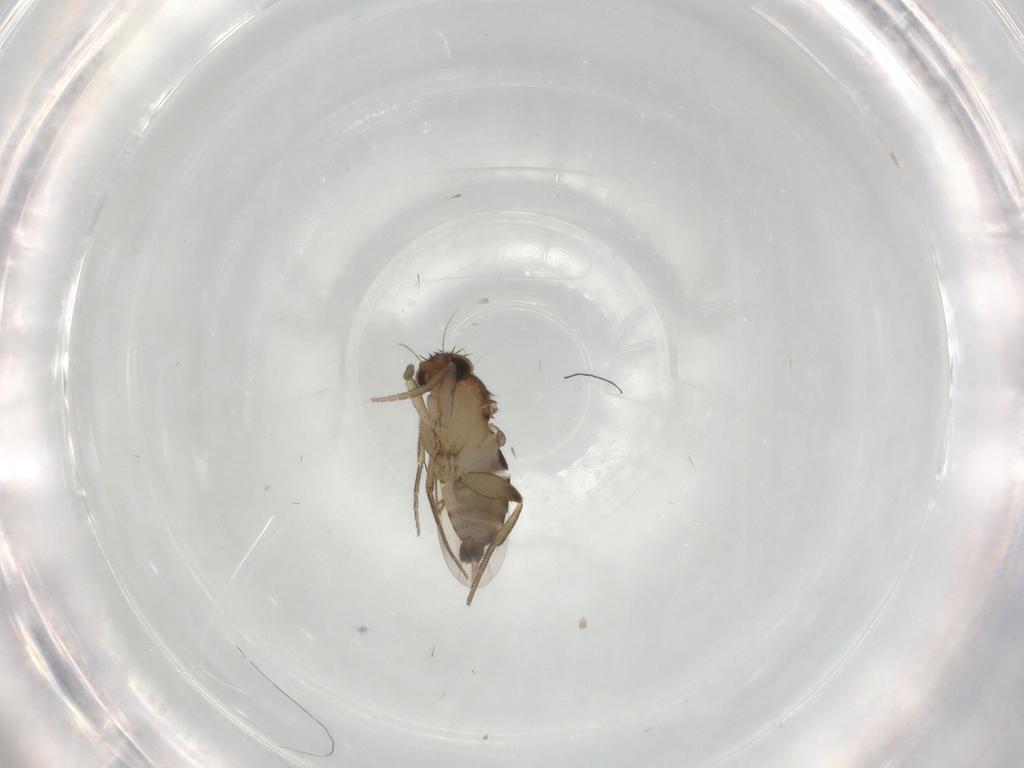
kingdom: Animalia
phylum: Arthropoda
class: Insecta
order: Diptera
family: Phoridae
